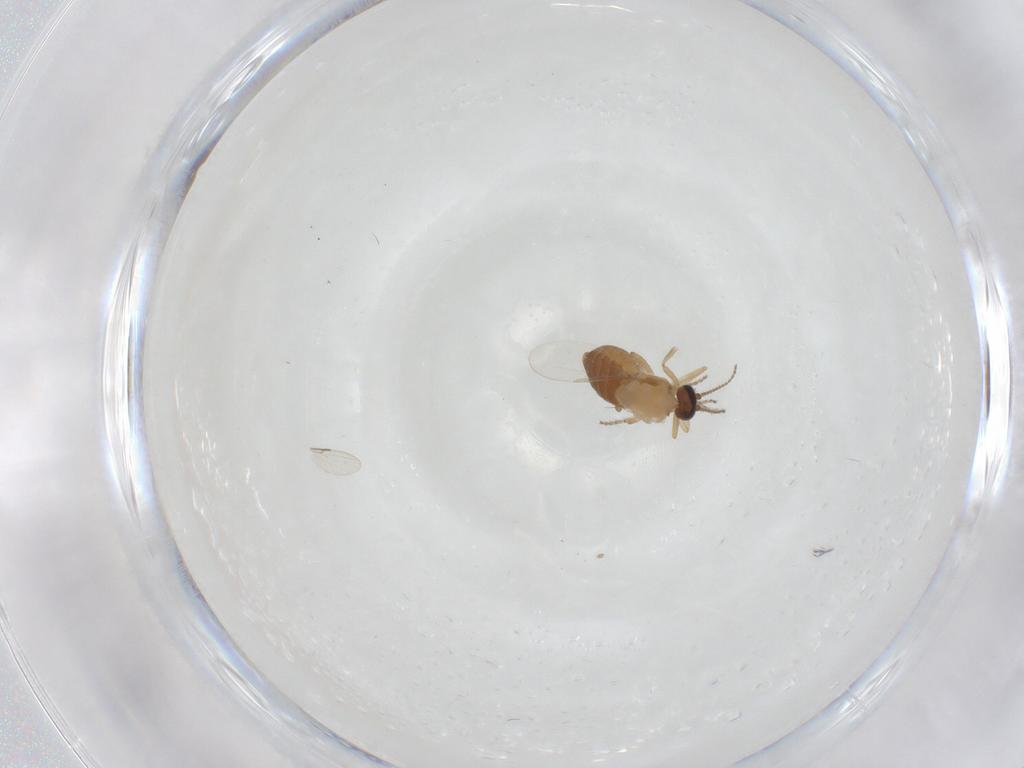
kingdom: Animalia
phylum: Arthropoda
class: Insecta
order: Diptera
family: Ceratopogonidae
